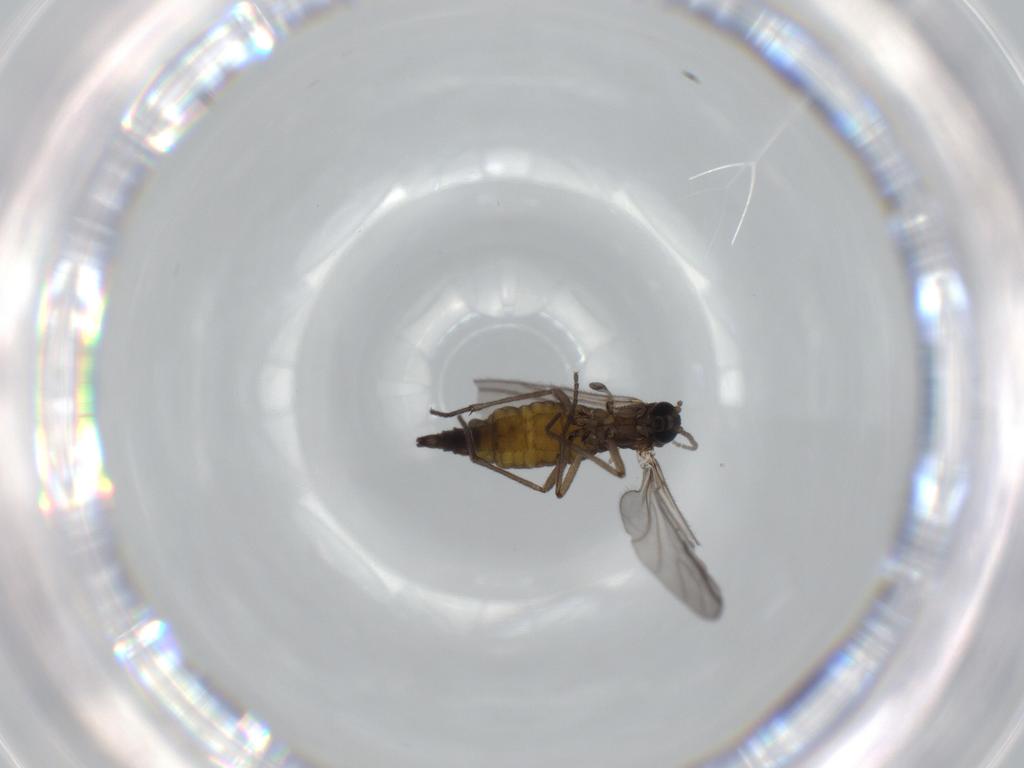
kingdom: Animalia
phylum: Arthropoda
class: Insecta
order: Diptera
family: Sciaridae
